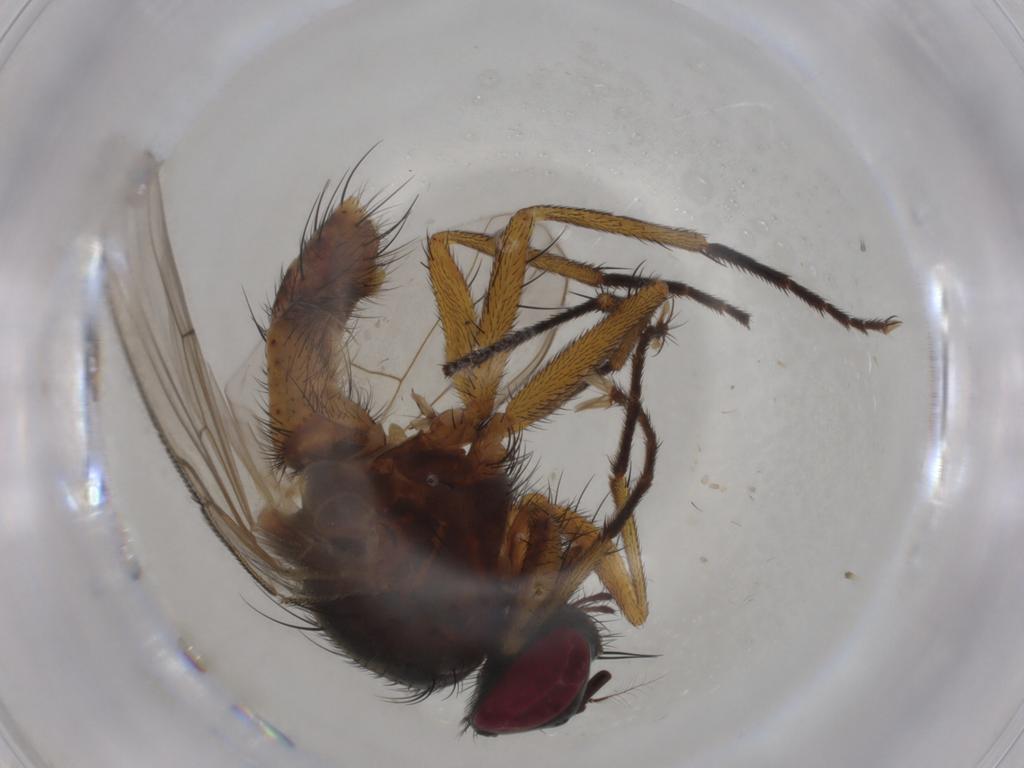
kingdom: Animalia
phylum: Arthropoda
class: Insecta
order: Diptera
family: Muscidae
